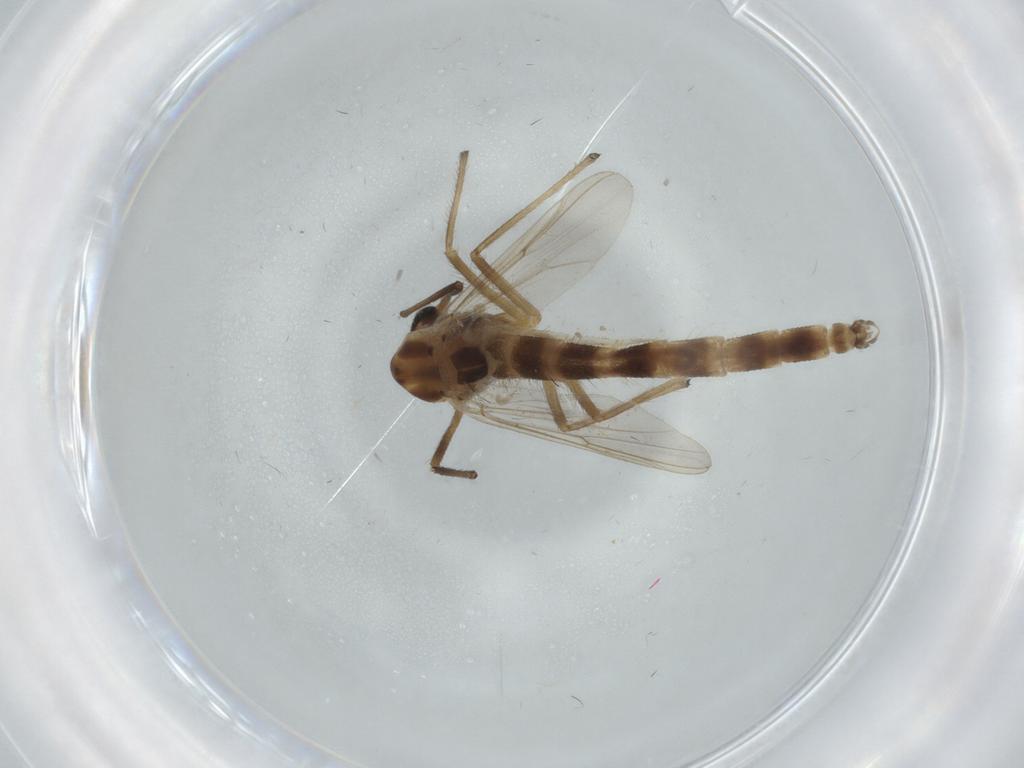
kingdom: Animalia
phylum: Arthropoda
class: Insecta
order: Diptera
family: Chironomidae
